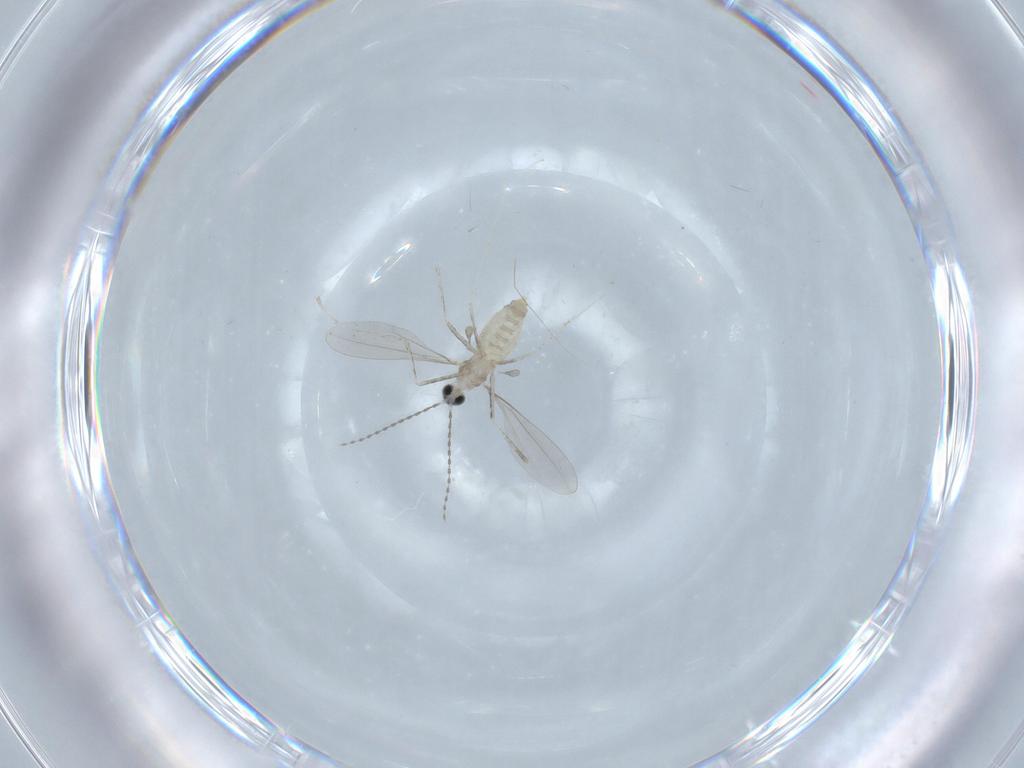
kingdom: Animalia
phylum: Arthropoda
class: Insecta
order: Diptera
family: Cecidomyiidae
